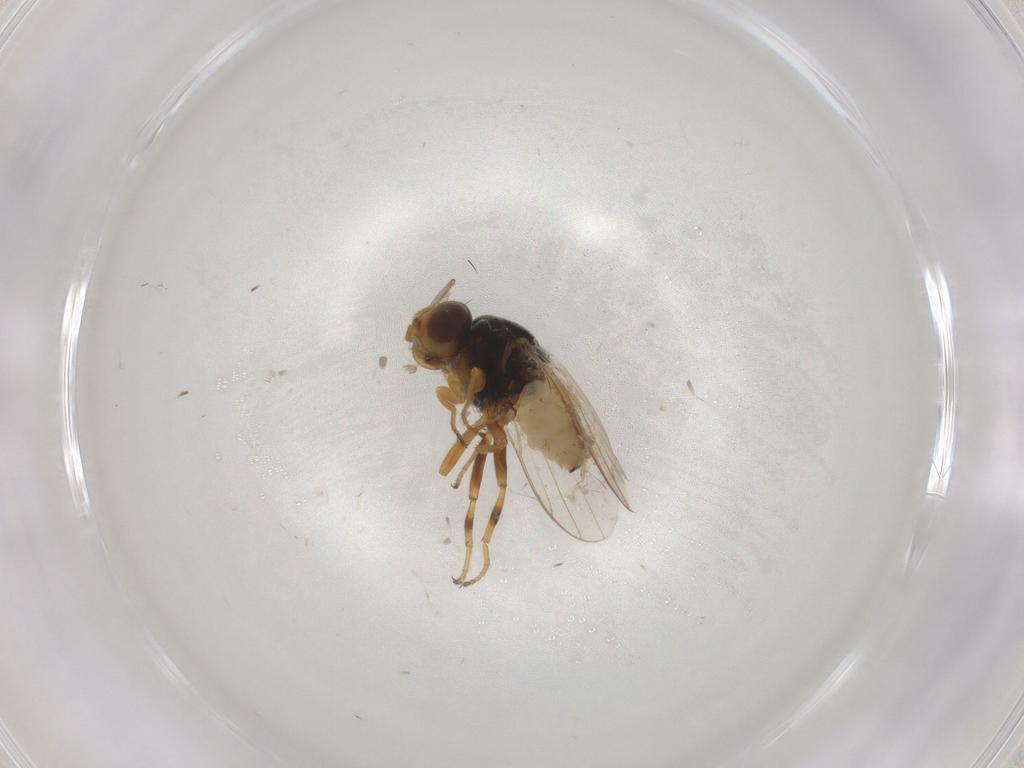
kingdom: Animalia
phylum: Arthropoda
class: Insecta
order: Diptera
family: Chloropidae
